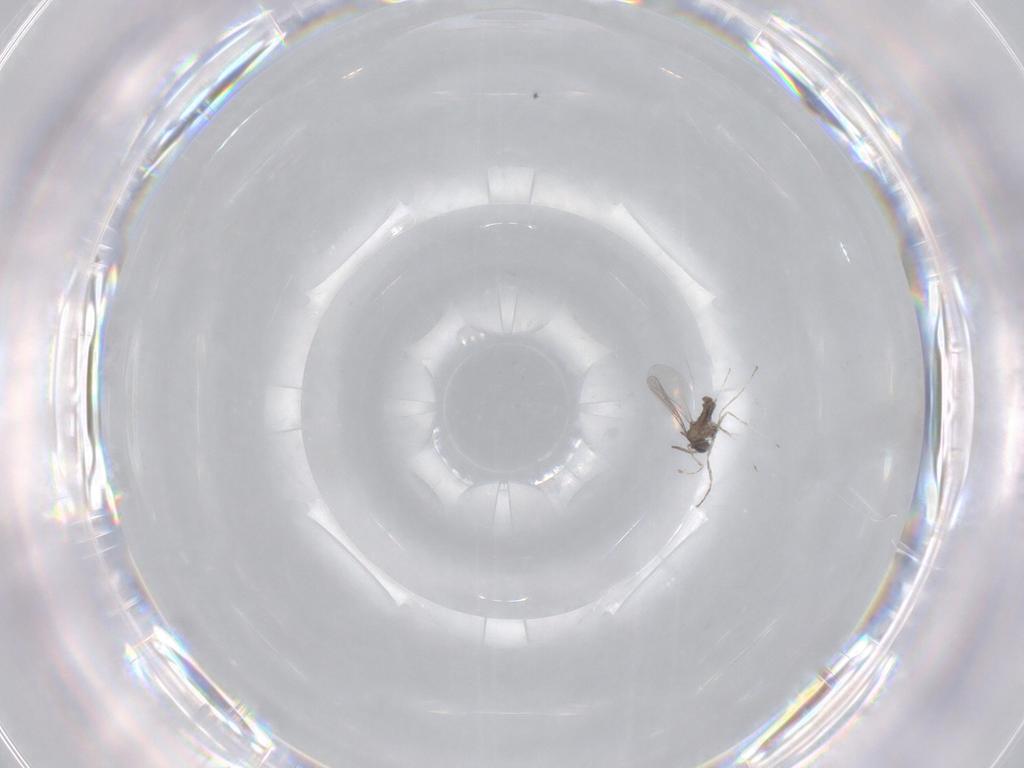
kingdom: Animalia
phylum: Arthropoda
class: Insecta
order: Diptera
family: Cecidomyiidae
